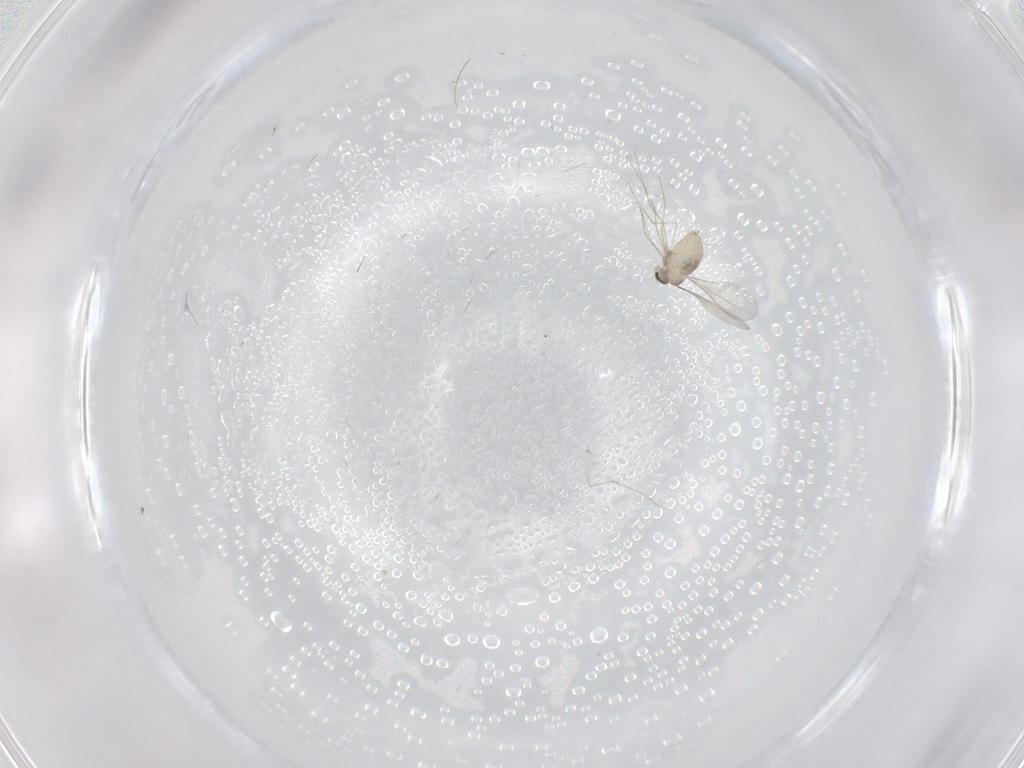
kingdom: Animalia
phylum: Arthropoda
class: Insecta
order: Diptera
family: Cecidomyiidae
